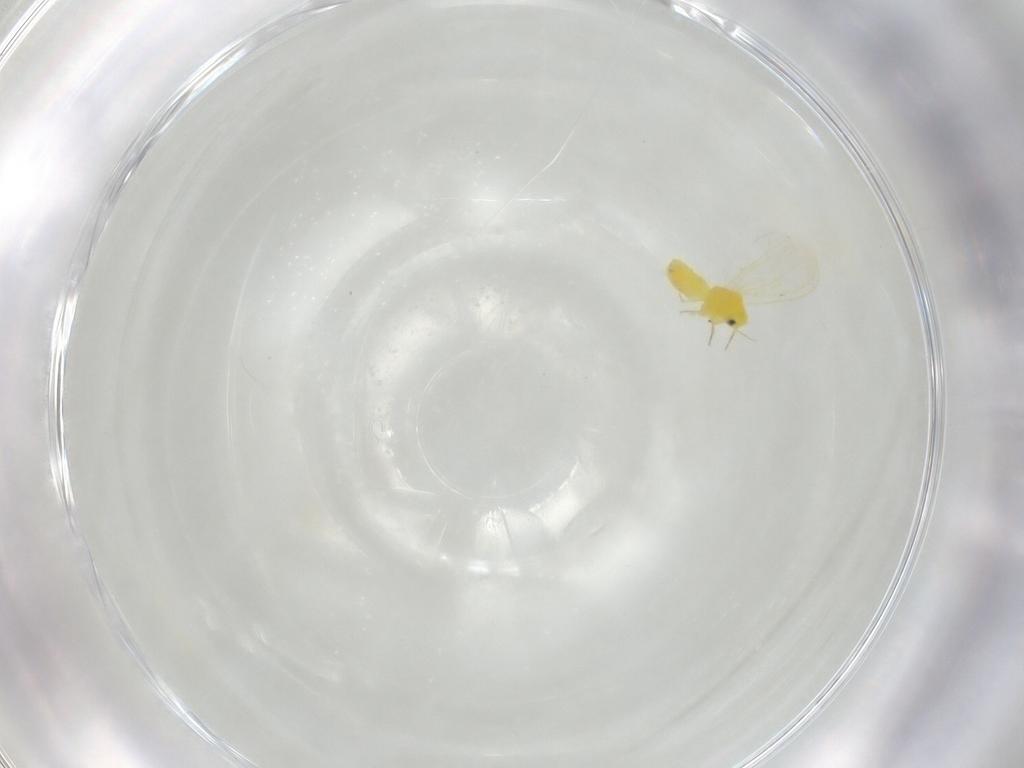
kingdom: Animalia
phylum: Arthropoda
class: Insecta
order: Hemiptera
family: Aleyrodidae
